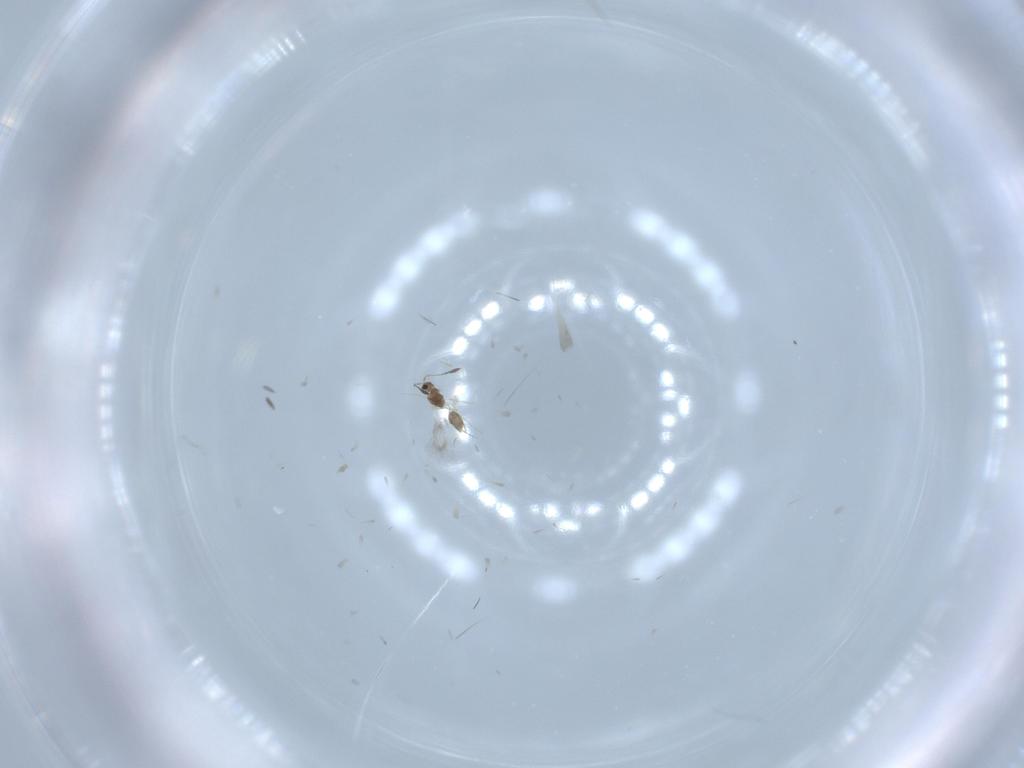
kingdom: Animalia
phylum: Arthropoda
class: Insecta
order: Hymenoptera
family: Mymarommatidae
